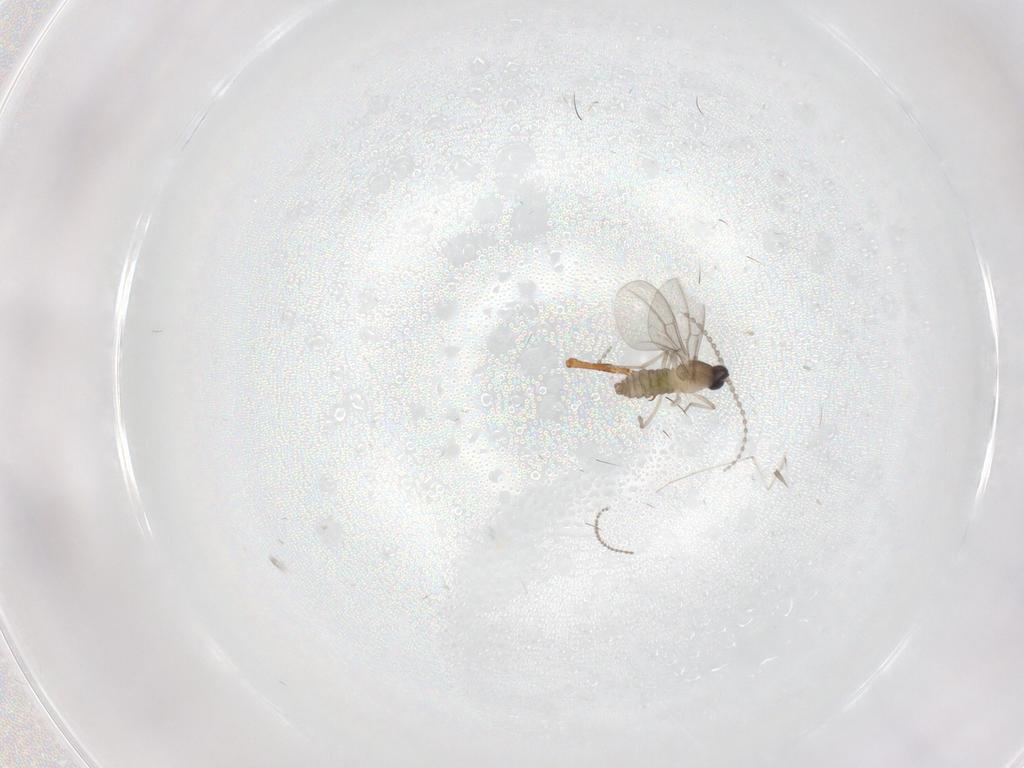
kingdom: Animalia
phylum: Arthropoda
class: Insecta
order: Diptera
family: Cecidomyiidae
